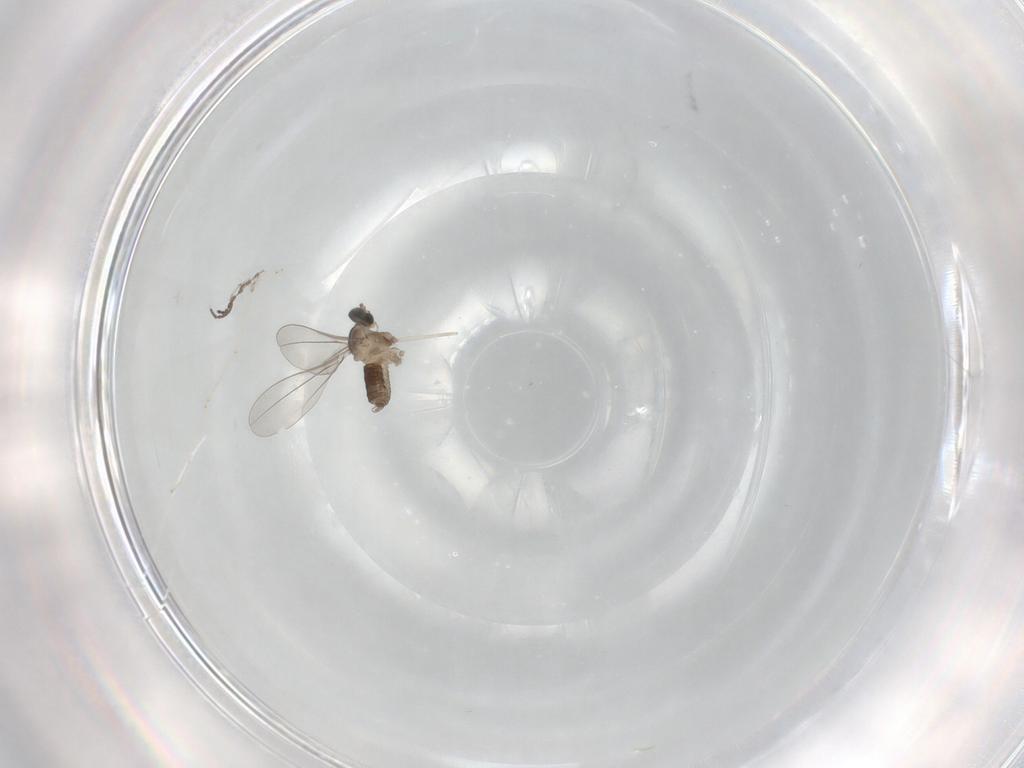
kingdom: Animalia
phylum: Arthropoda
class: Insecta
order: Diptera
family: Cecidomyiidae
